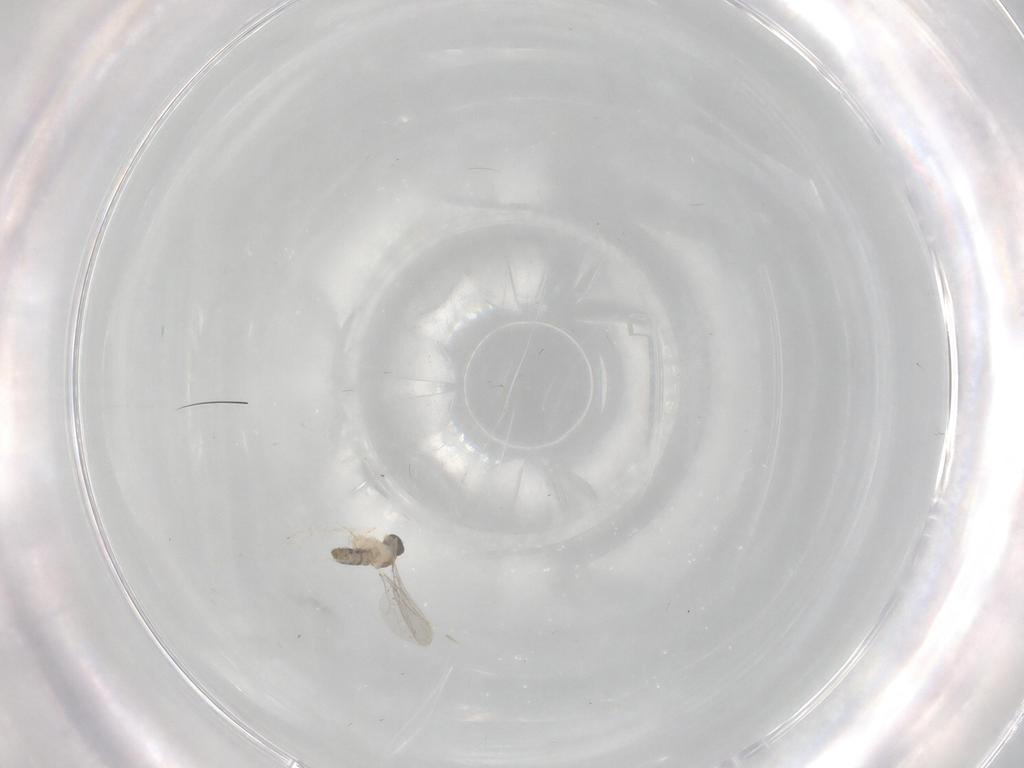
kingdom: Animalia
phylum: Arthropoda
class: Insecta
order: Diptera
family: Cecidomyiidae
